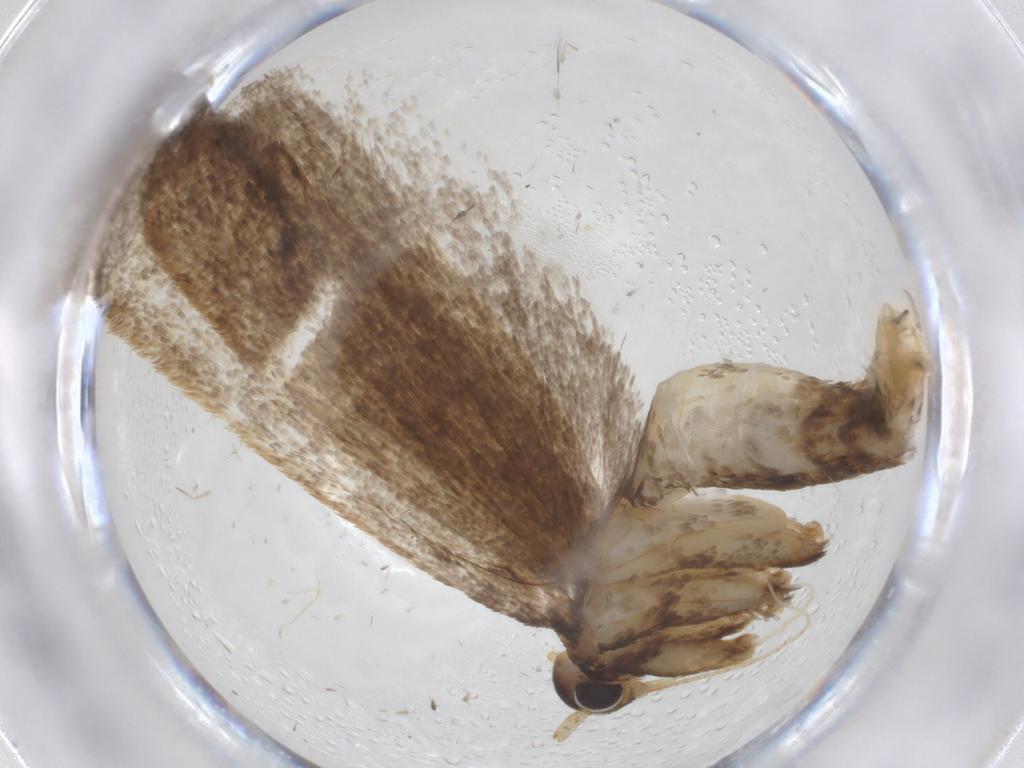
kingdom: Animalia
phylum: Arthropoda
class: Insecta
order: Lepidoptera
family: Lecithoceridae
